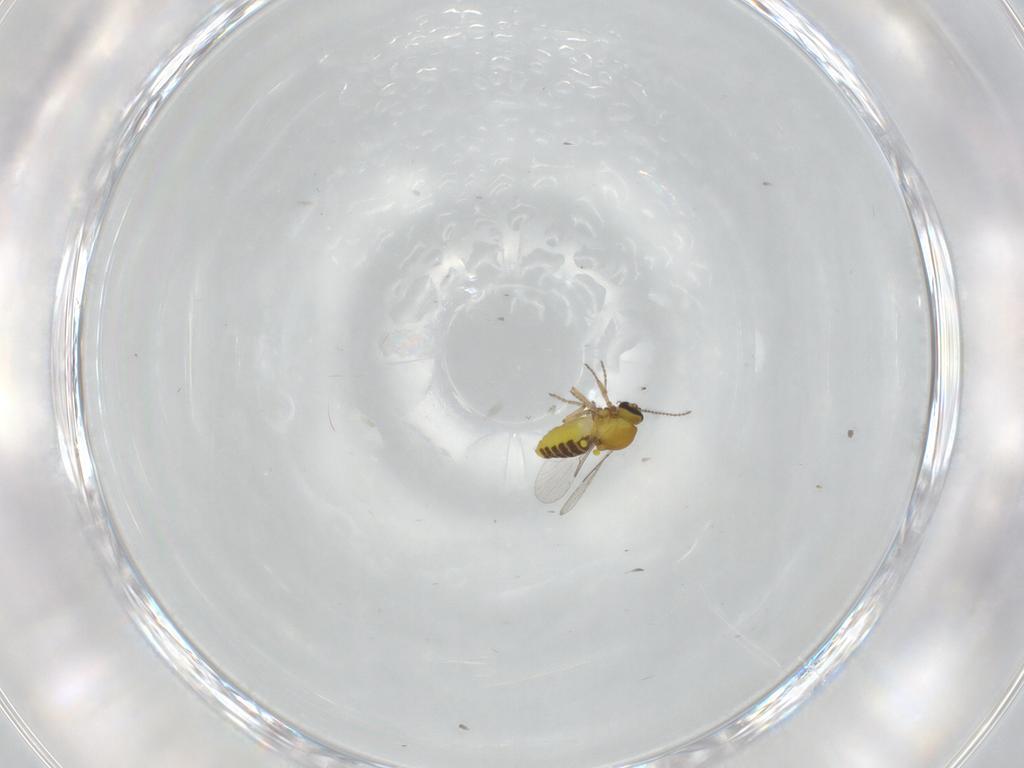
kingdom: Animalia
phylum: Arthropoda
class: Insecta
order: Diptera
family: Ceratopogonidae
